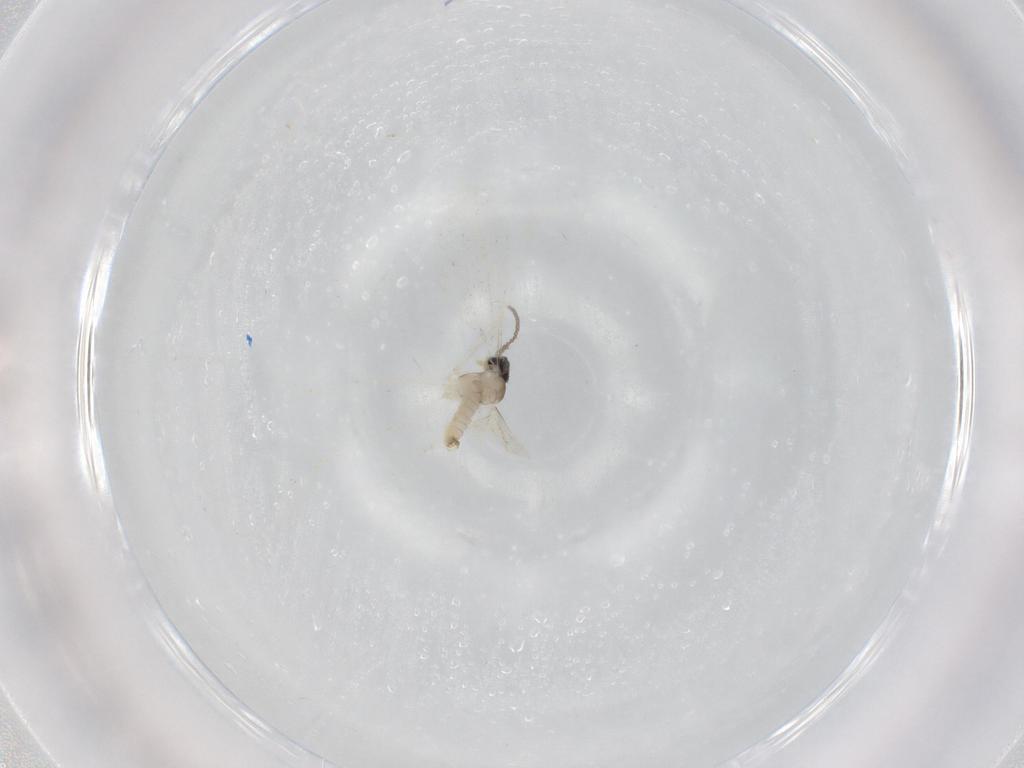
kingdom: Animalia
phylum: Arthropoda
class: Insecta
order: Diptera
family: Cecidomyiidae
